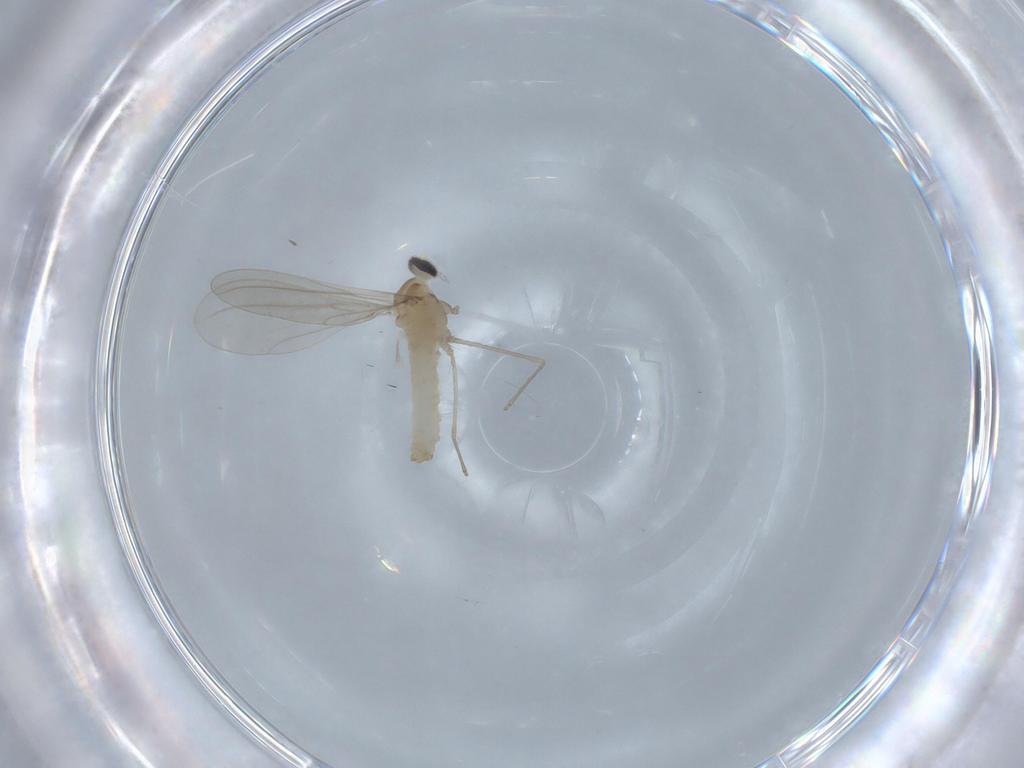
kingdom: Animalia
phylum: Arthropoda
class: Insecta
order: Diptera
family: Cecidomyiidae
